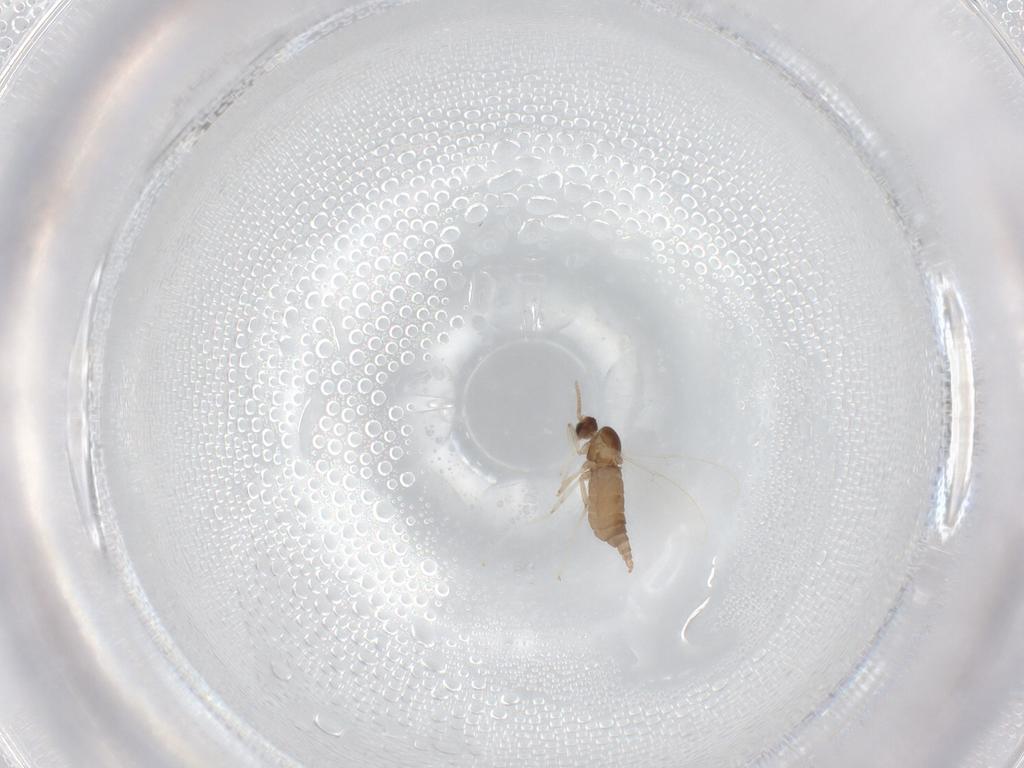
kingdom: Animalia
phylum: Arthropoda
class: Insecta
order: Diptera
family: Cecidomyiidae
